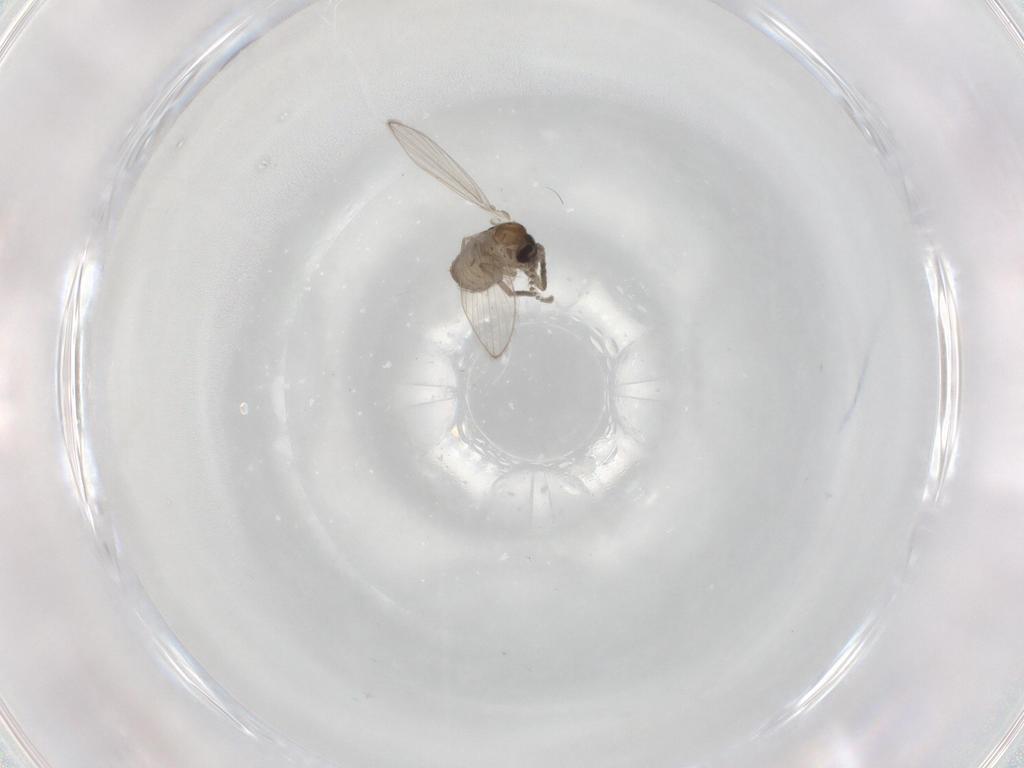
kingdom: Animalia
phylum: Arthropoda
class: Insecta
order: Diptera
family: Psychodidae
